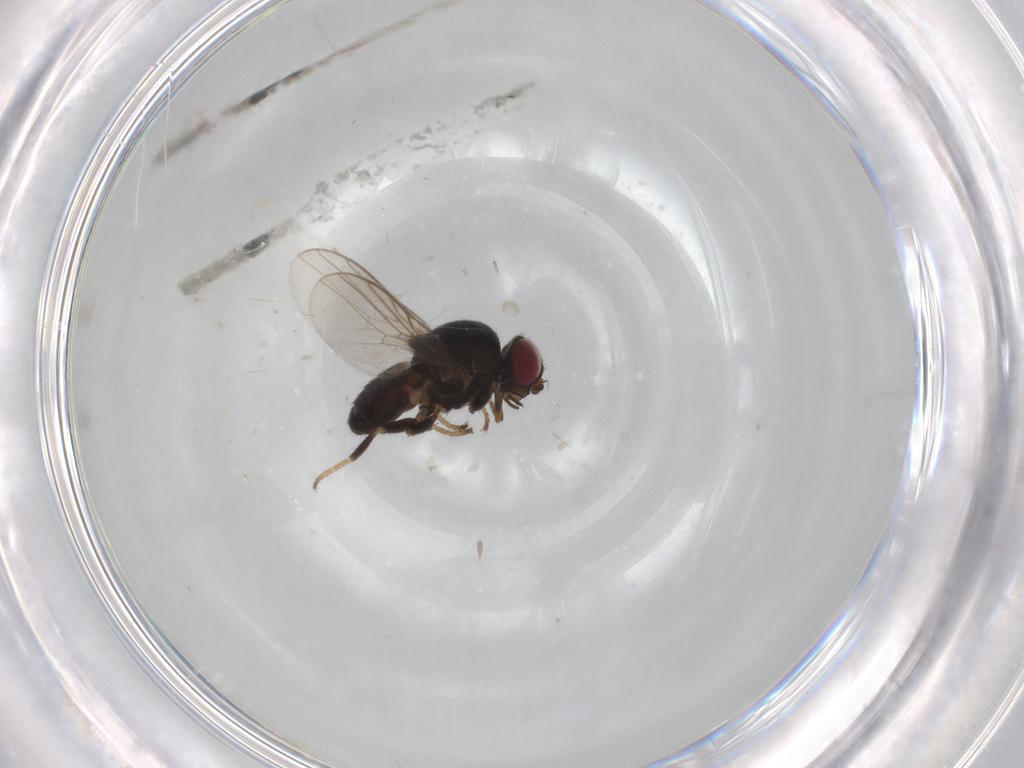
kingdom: Animalia
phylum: Arthropoda
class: Insecta
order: Diptera
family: Chloropidae
